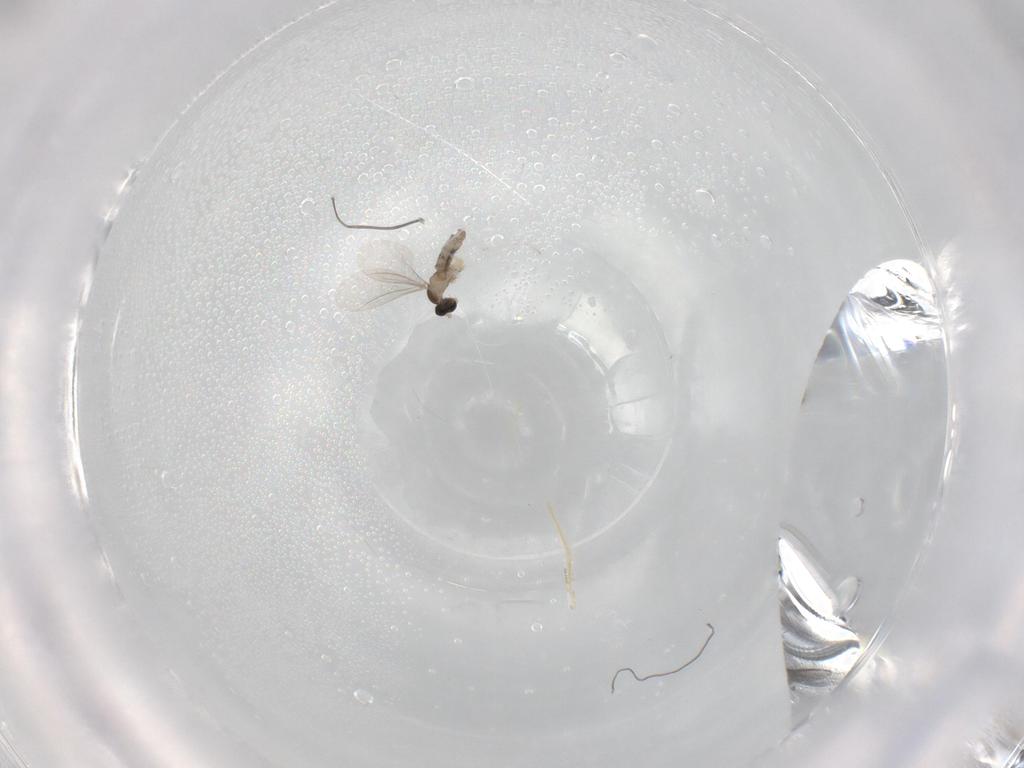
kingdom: Animalia
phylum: Arthropoda
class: Insecta
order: Diptera
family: Cecidomyiidae
